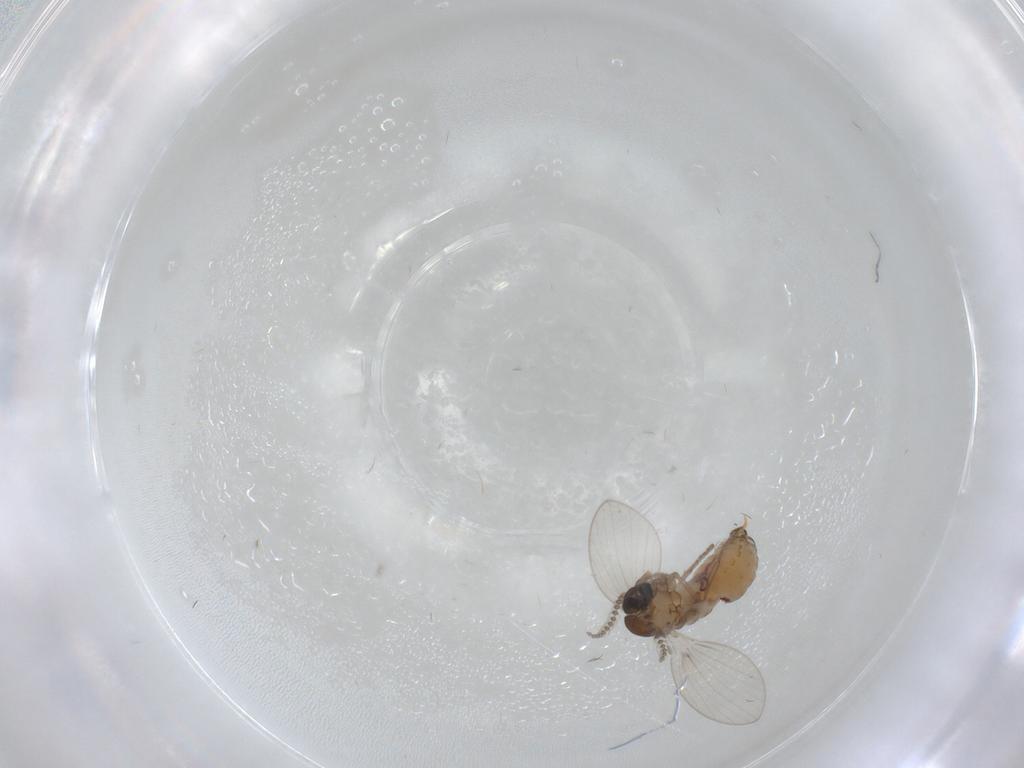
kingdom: Animalia
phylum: Arthropoda
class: Insecta
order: Diptera
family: Psychodidae
